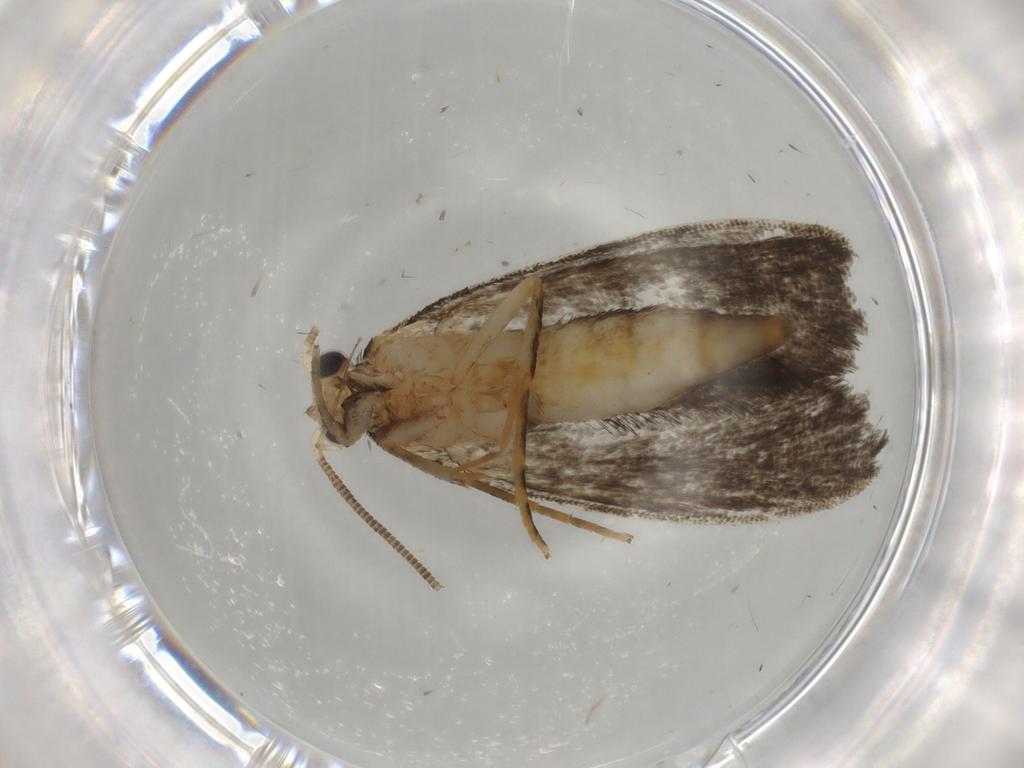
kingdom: Animalia
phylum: Arthropoda
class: Insecta
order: Lepidoptera
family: Tineidae
